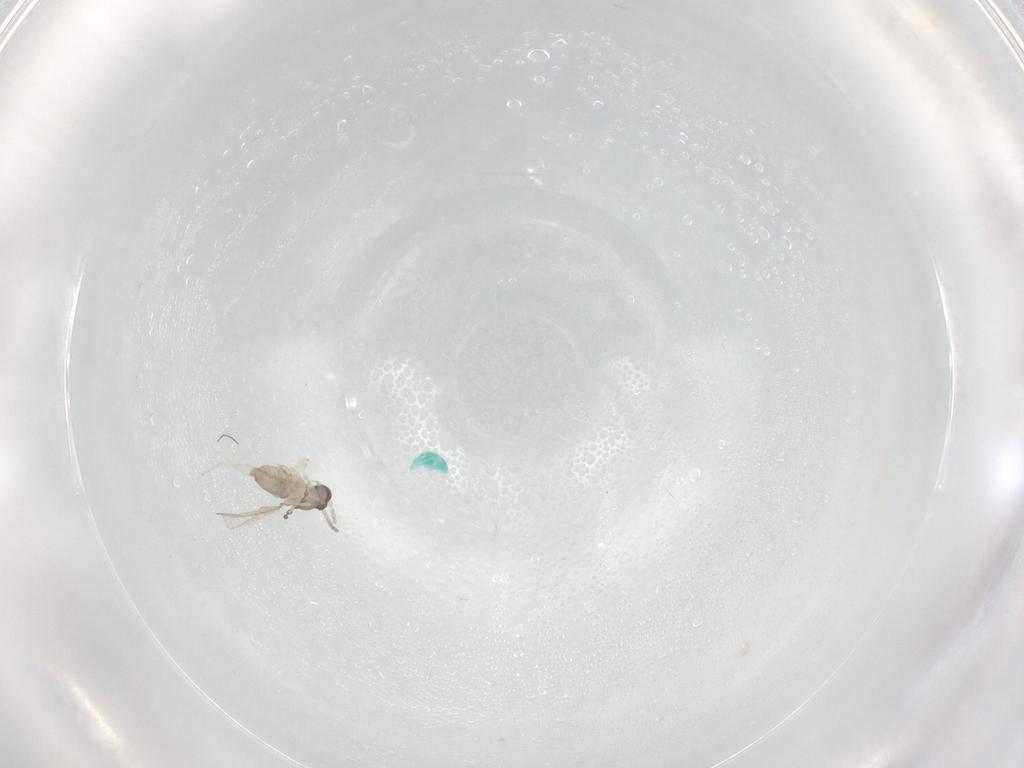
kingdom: Animalia
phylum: Arthropoda
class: Insecta
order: Diptera
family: Cecidomyiidae
